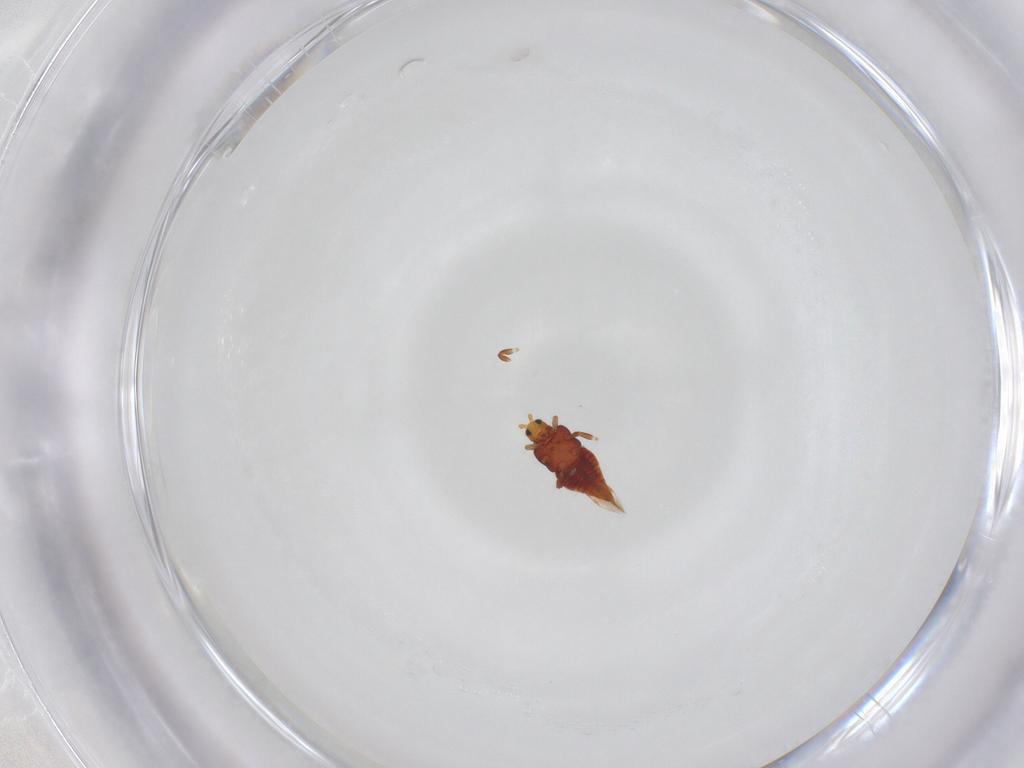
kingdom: Animalia
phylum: Arthropoda
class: Insecta
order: Thysanoptera
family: Thripidae
